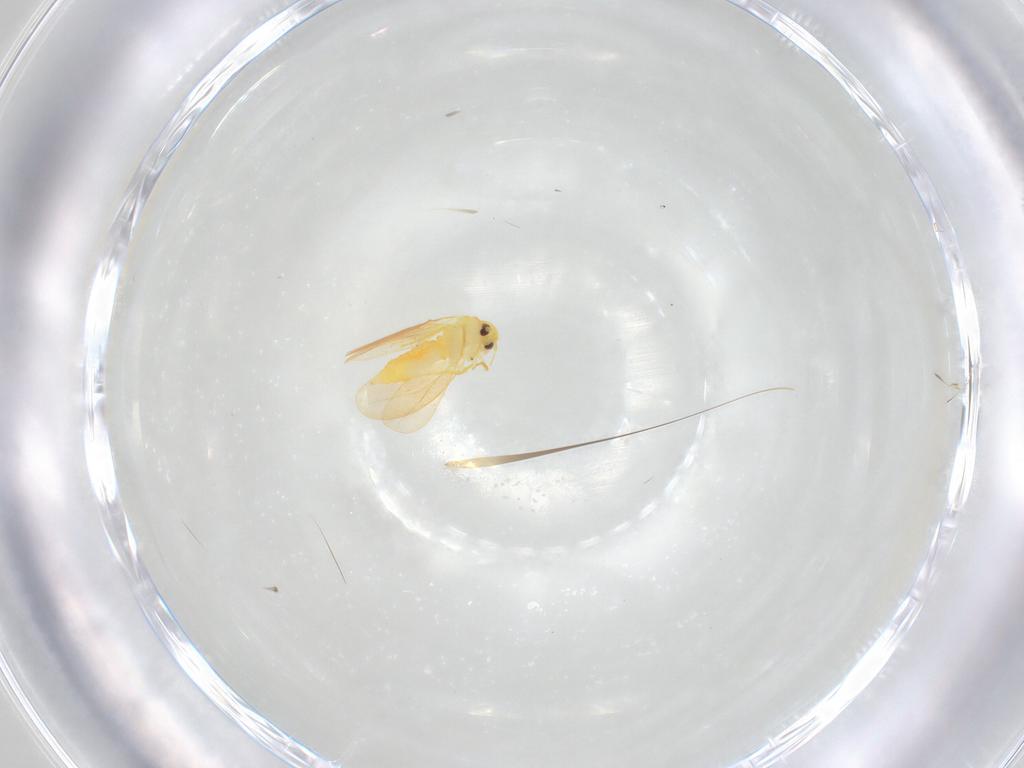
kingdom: Animalia
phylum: Arthropoda
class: Insecta
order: Hemiptera
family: Aleyrodidae
